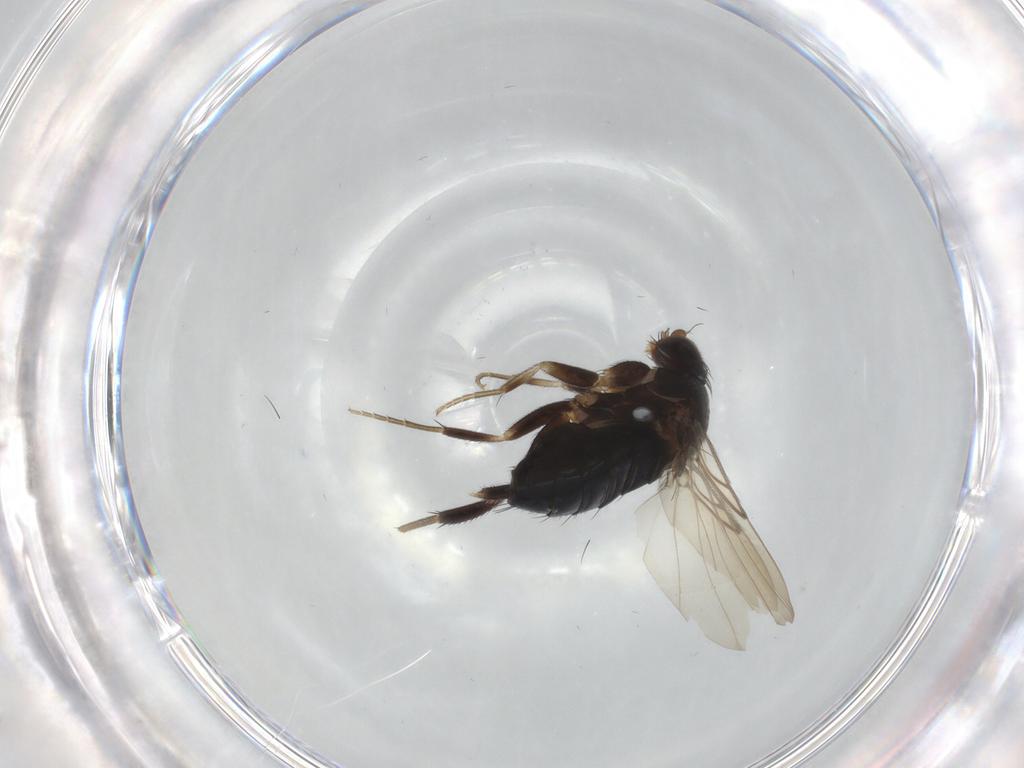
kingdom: Animalia
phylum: Arthropoda
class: Insecta
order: Diptera
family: Phoridae
